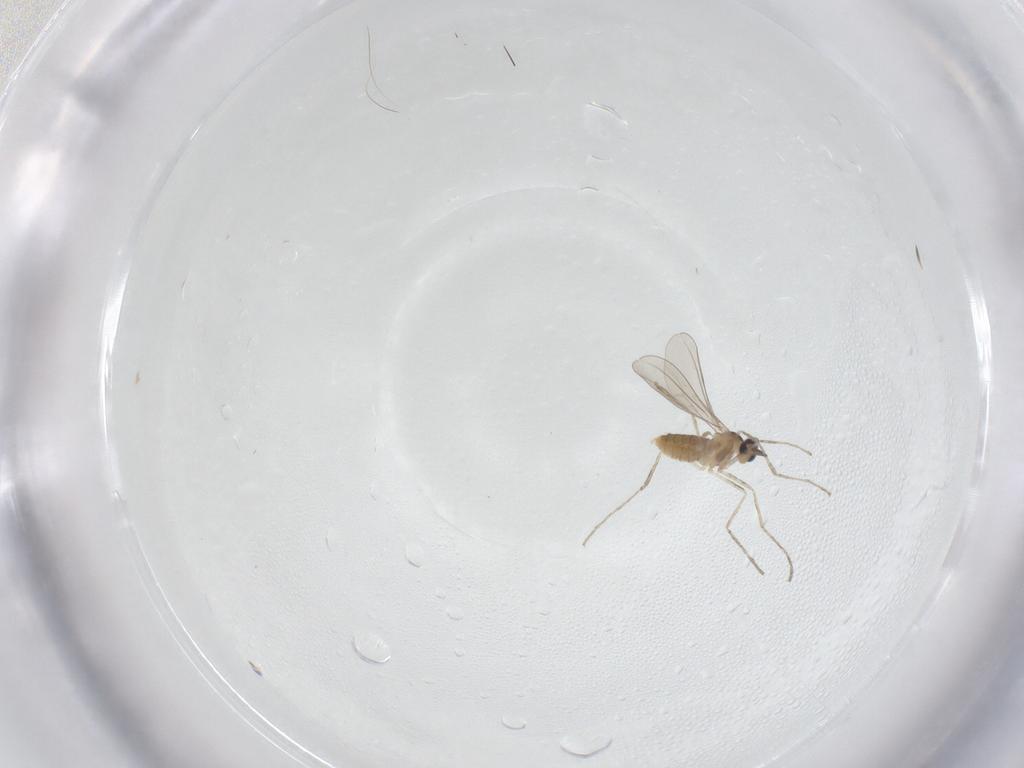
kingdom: Animalia
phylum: Arthropoda
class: Insecta
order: Diptera
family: Cecidomyiidae
